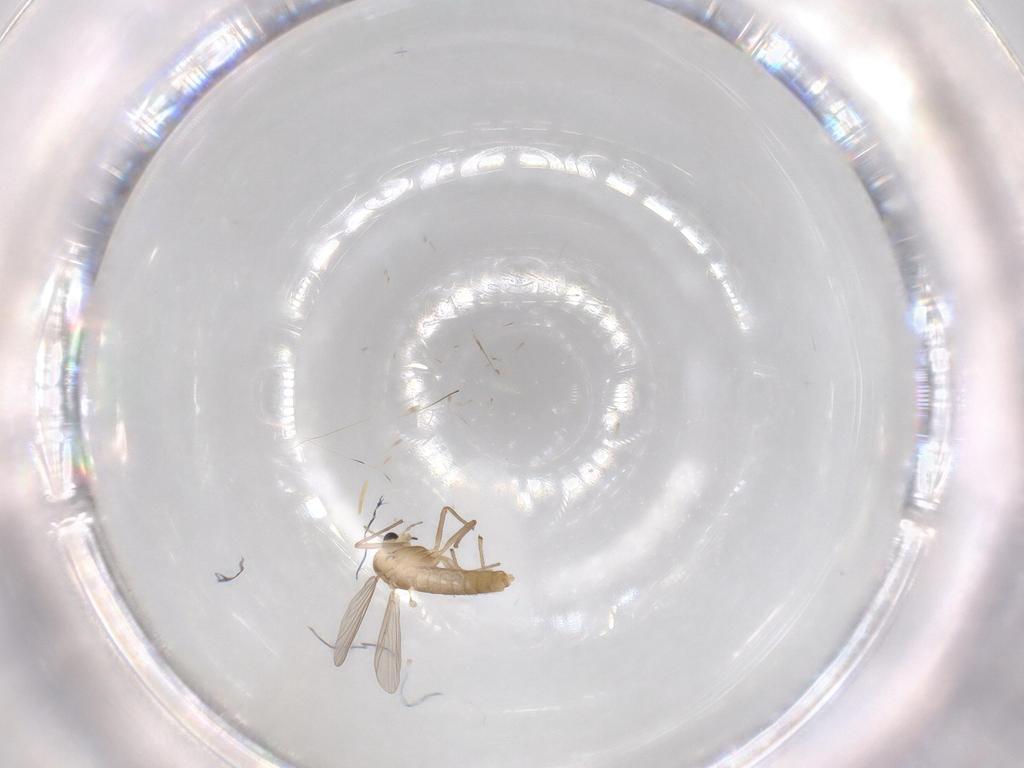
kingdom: Animalia
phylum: Arthropoda
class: Insecta
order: Diptera
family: Chironomidae
